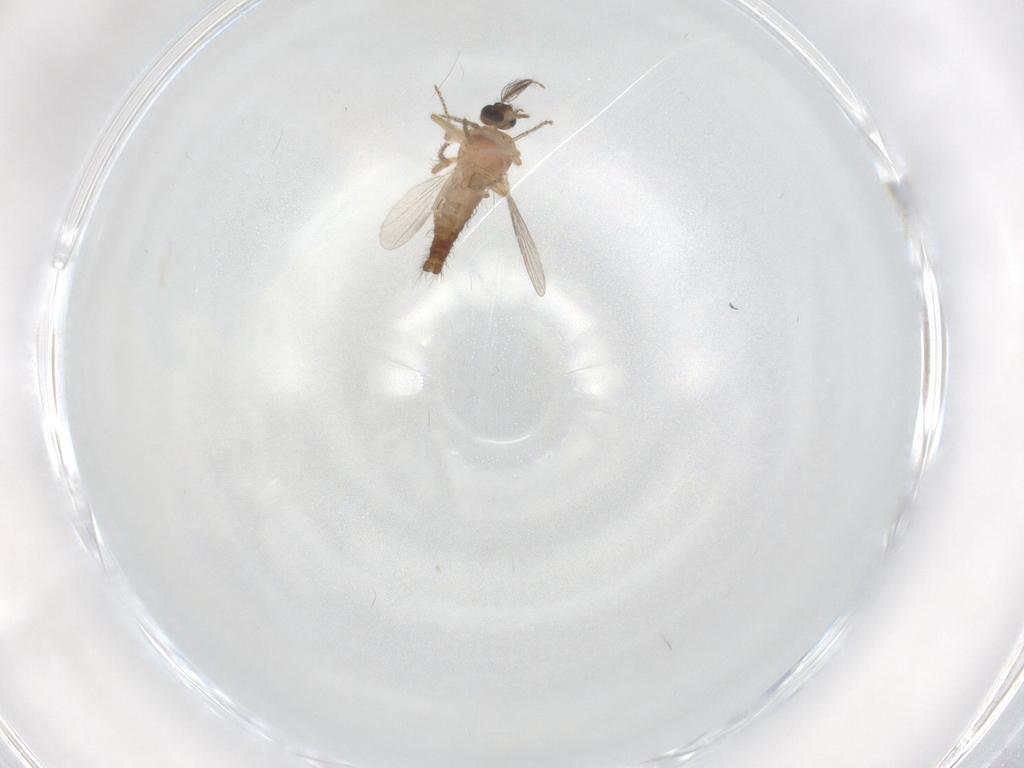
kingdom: Animalia
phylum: Arthropoda
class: Insecta
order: Diptera
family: Ceratopogonidae
